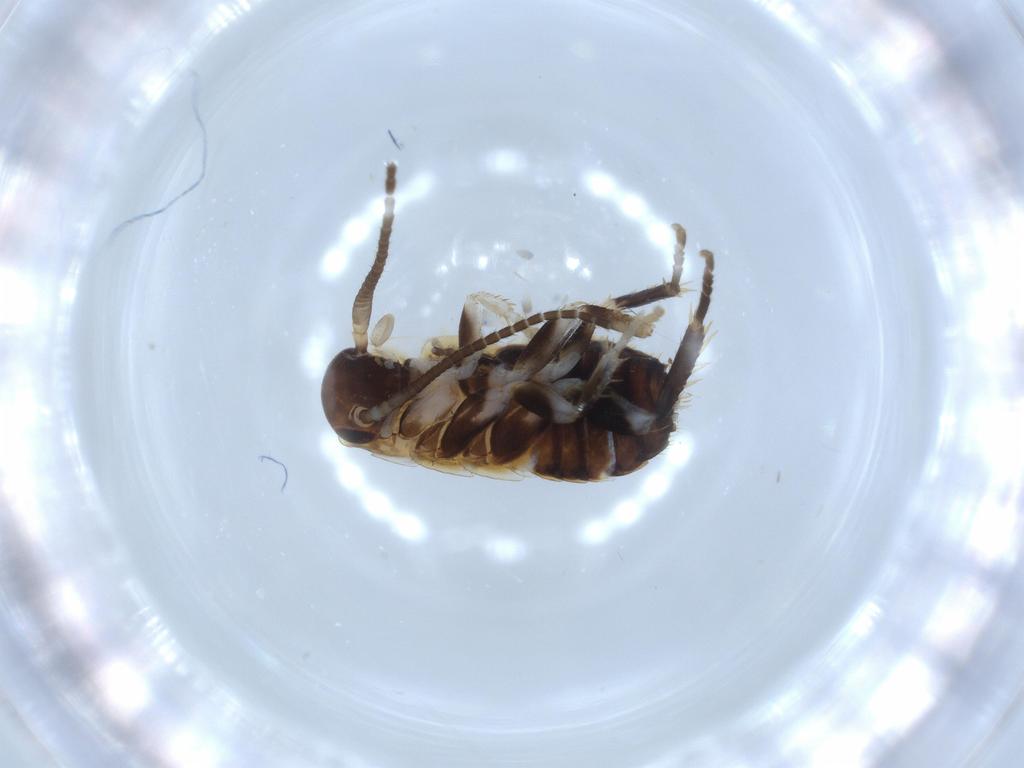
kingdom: Animalia
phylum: Arthropoda
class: Insecta
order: Blattodea
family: Ectobiidae
